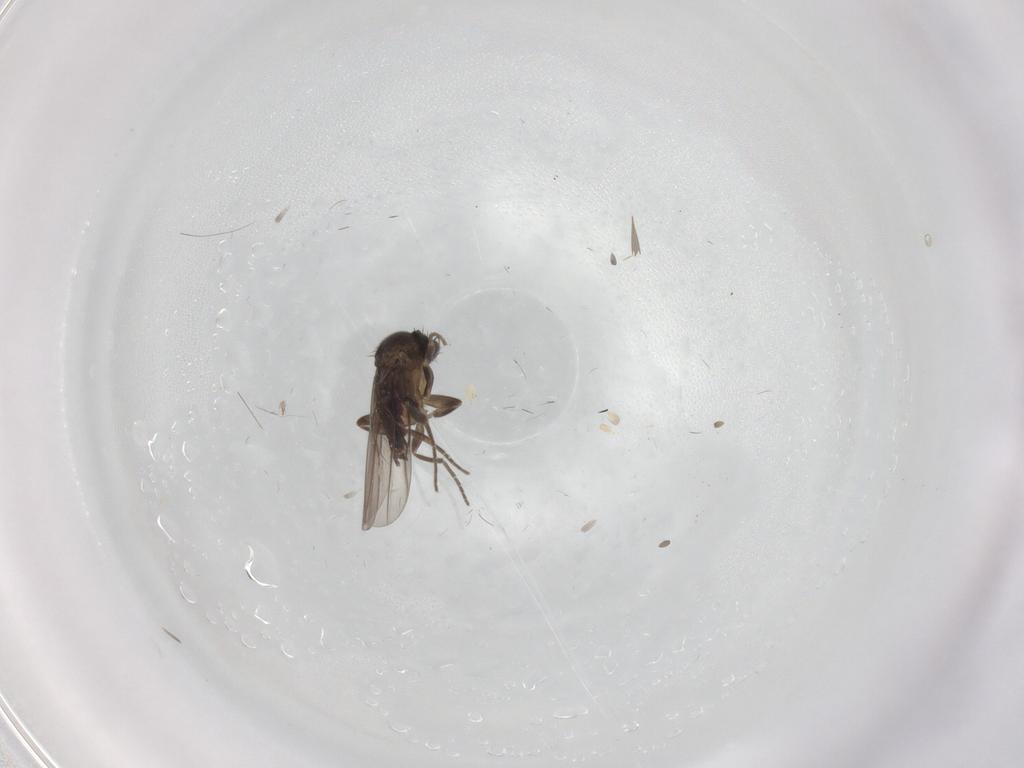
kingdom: Animalia
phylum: Arthropoda
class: Insecta
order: Diptera
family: Phoridae
